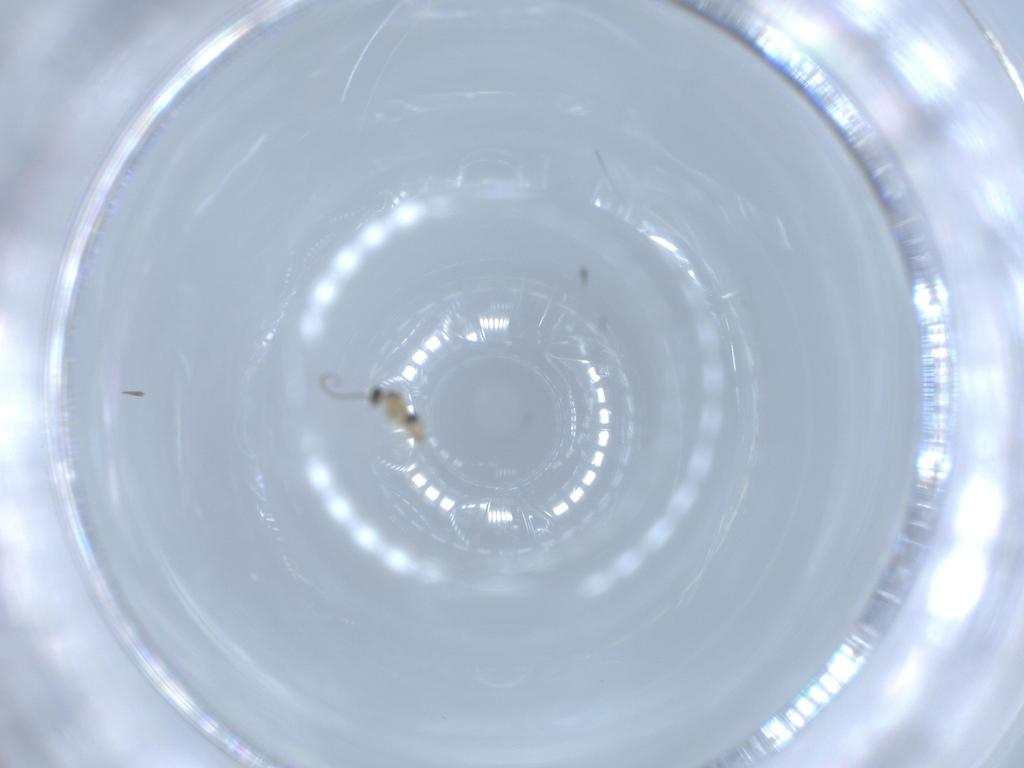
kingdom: Animalia
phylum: Arthropoda
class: Insecta
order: Diptera
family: Cecidomyiidae
